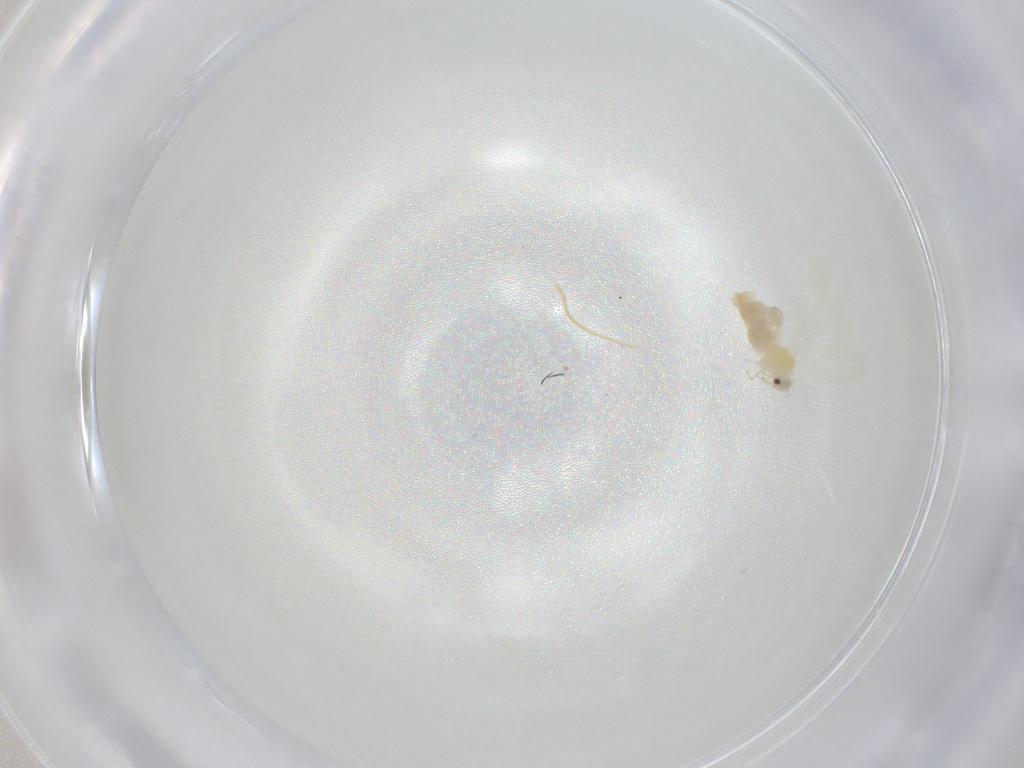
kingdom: Animalia
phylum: Arthropoda
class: Insecta
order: Hemiptera
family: Aleyrodidae
